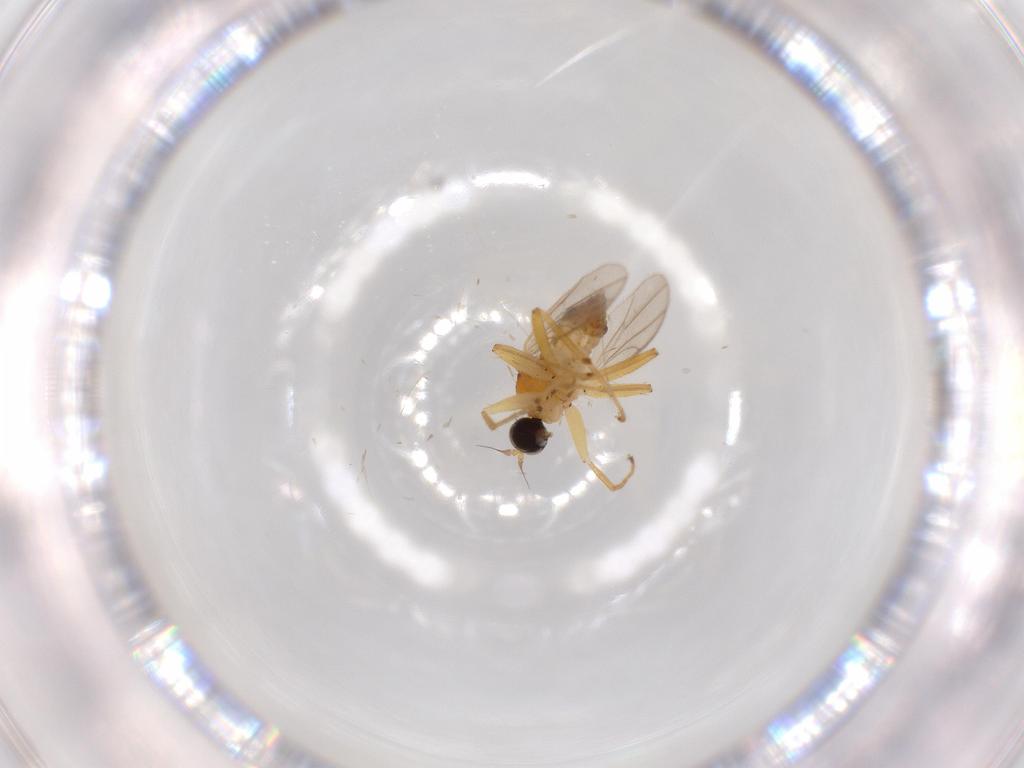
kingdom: Animalia
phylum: Arthropoda
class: Insecta
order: Diptera
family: Hybotidae
